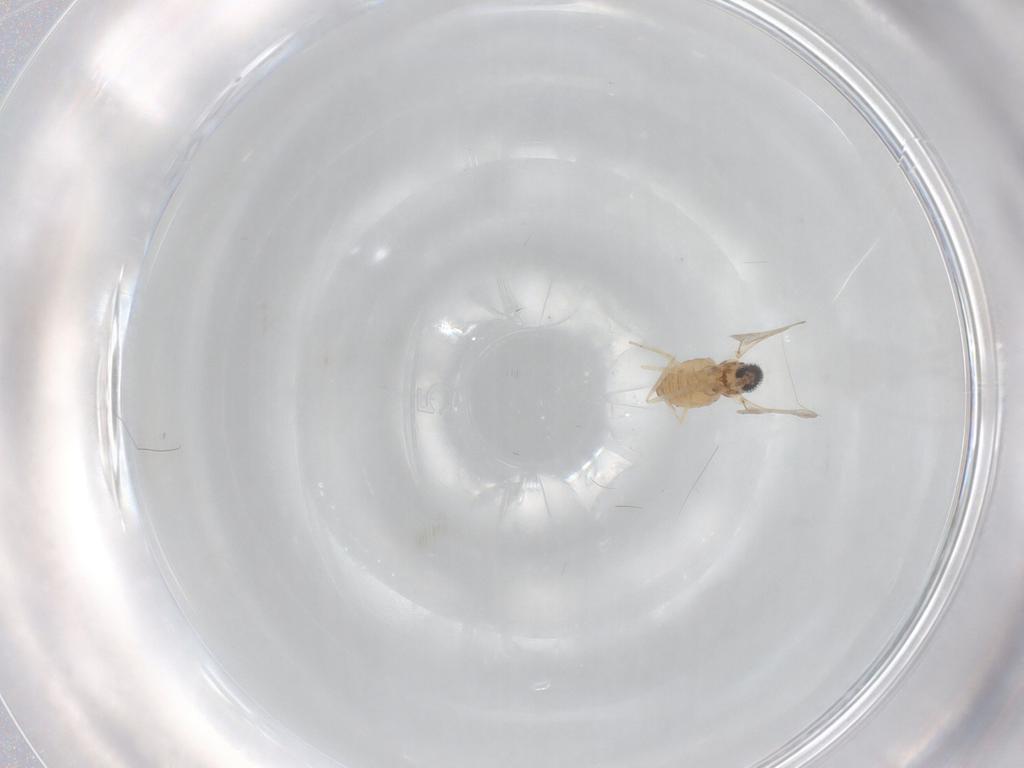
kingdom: Animalia
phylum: Arthropoda
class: Insecta
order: Diptera
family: Cecidomyiidae
